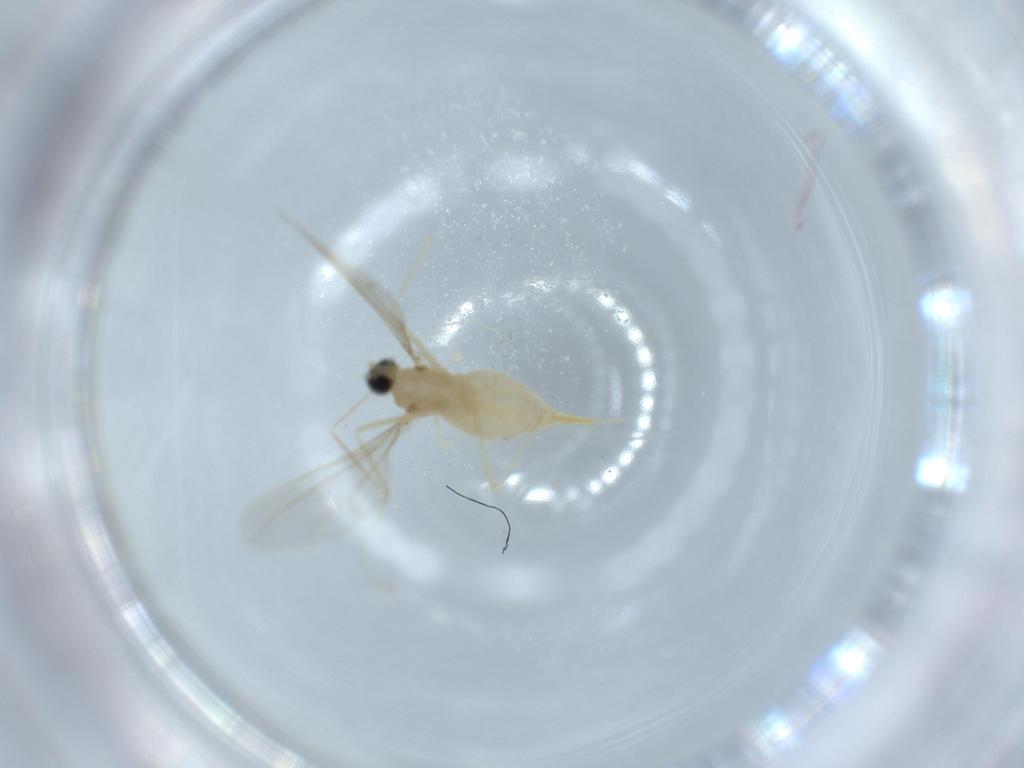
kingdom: Animalia
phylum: Arthropoda
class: Insecta
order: Diptera
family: Cecidomyiidae
